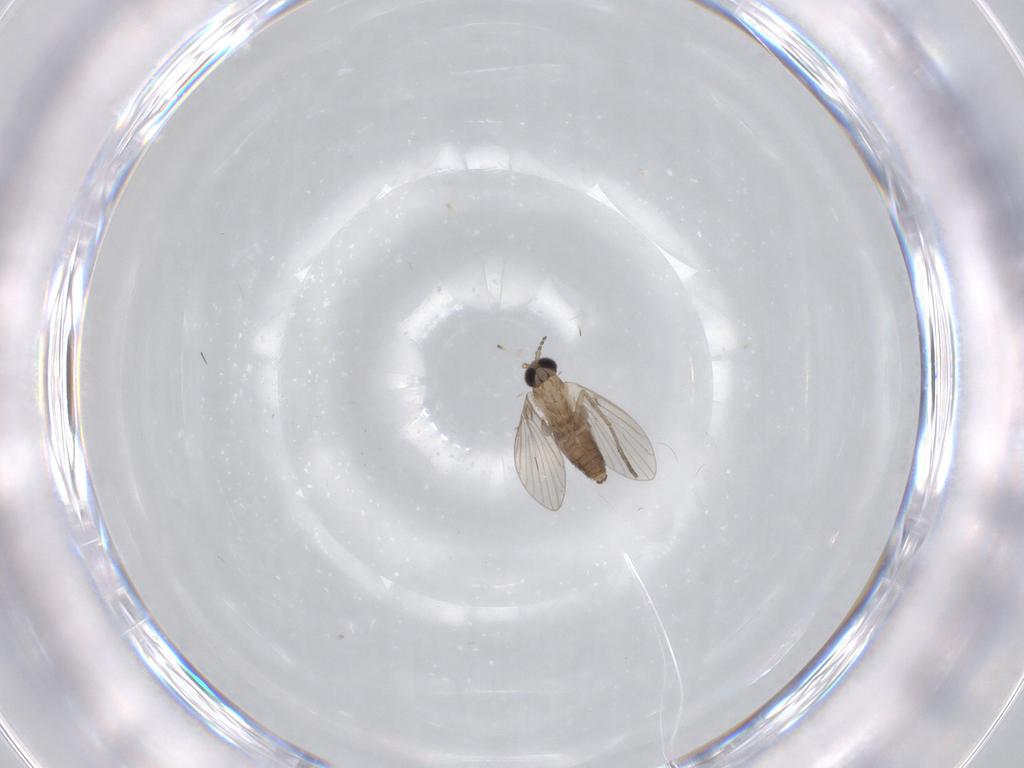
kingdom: Animalia
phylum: Arthropoda
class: Insecta
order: Diptera
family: Psychodidae
